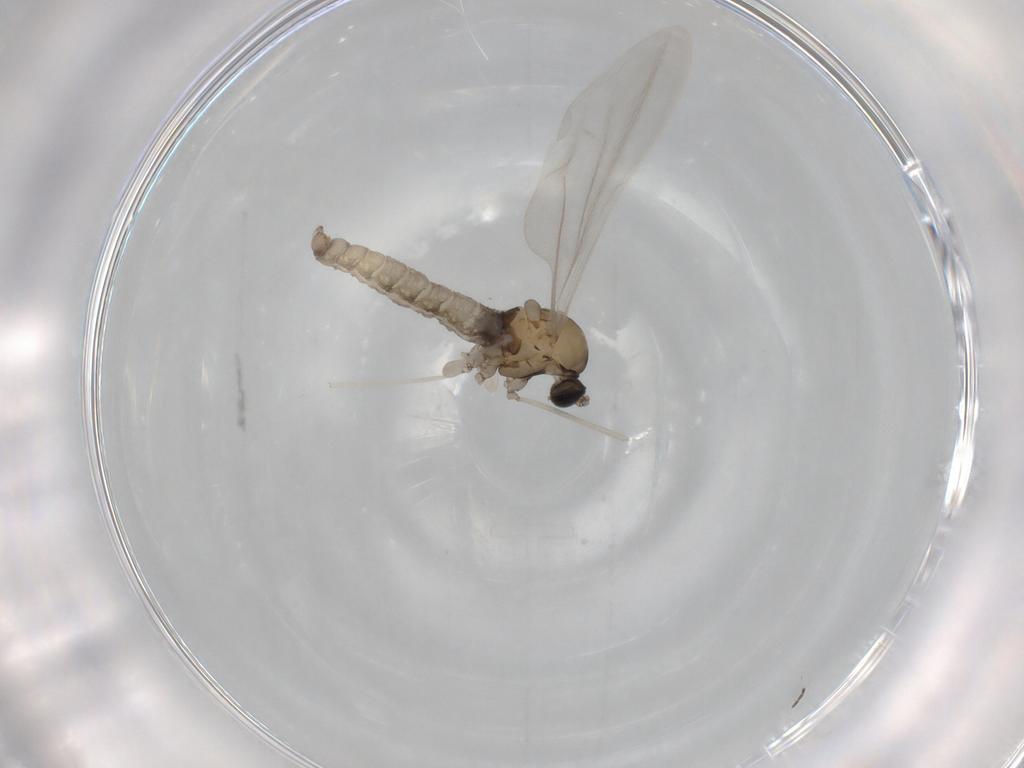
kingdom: Animalia
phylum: Arthropoda
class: Insecta
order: Diptera
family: Cecidomyiidae
